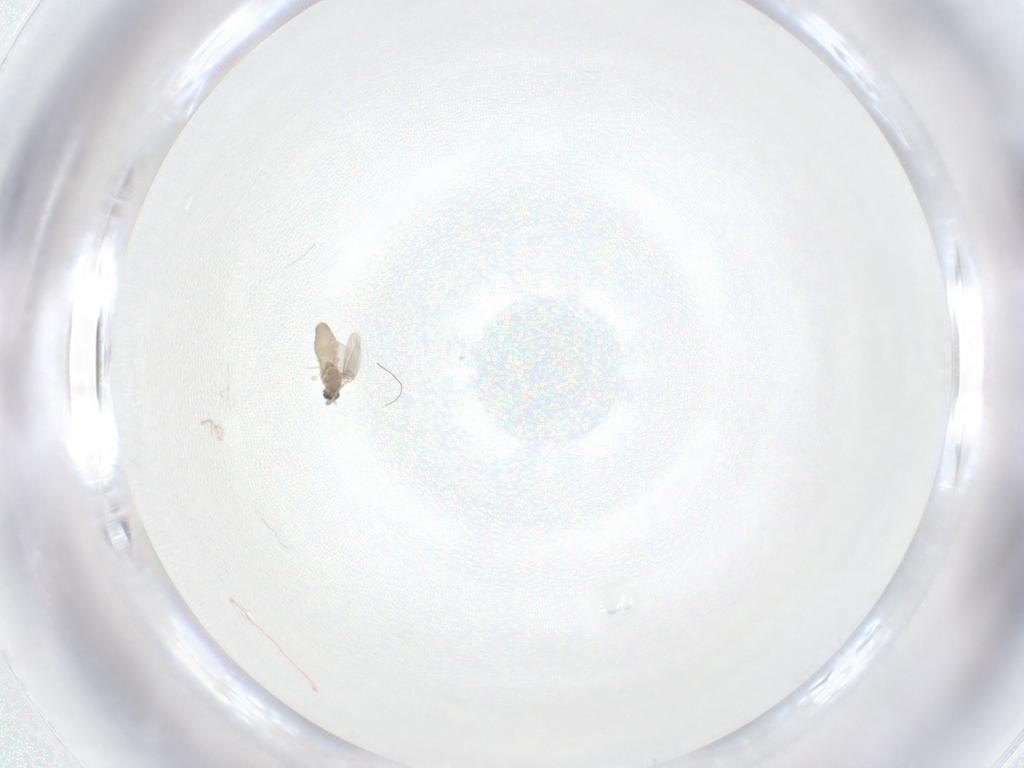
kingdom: Animalia
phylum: Arthropoda
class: Insecta
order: Diptera
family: Cecidomyiidae
